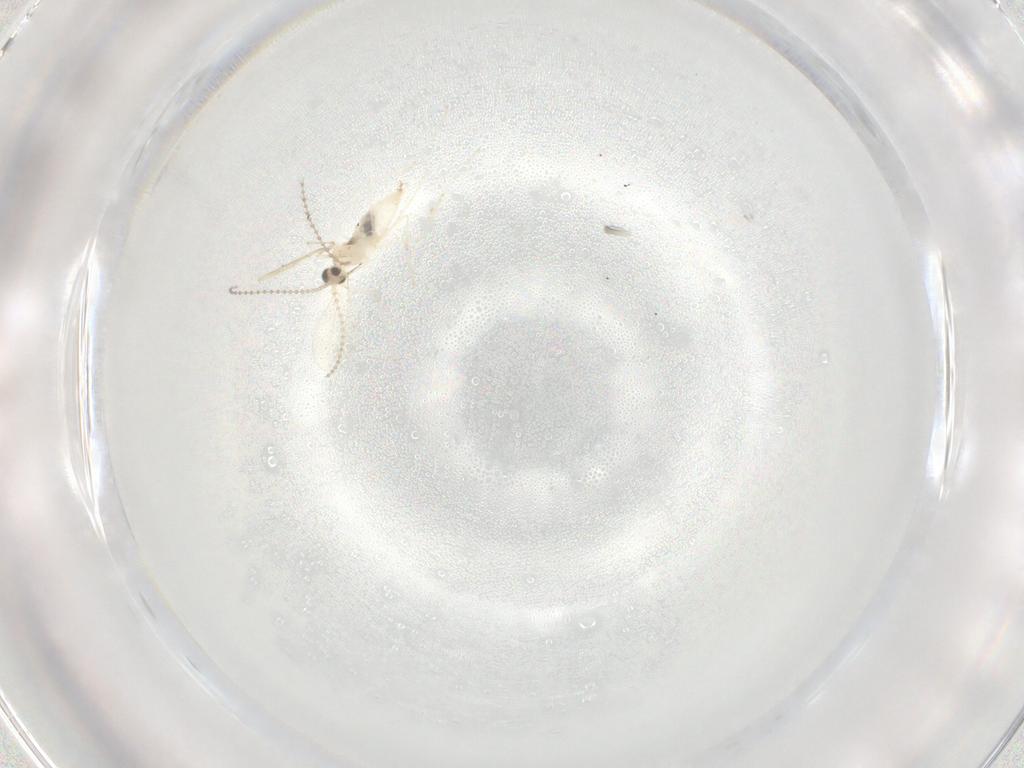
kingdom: Animalia
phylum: Arthropoda
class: Insecta
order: Diptera
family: Cecidomyiidae
